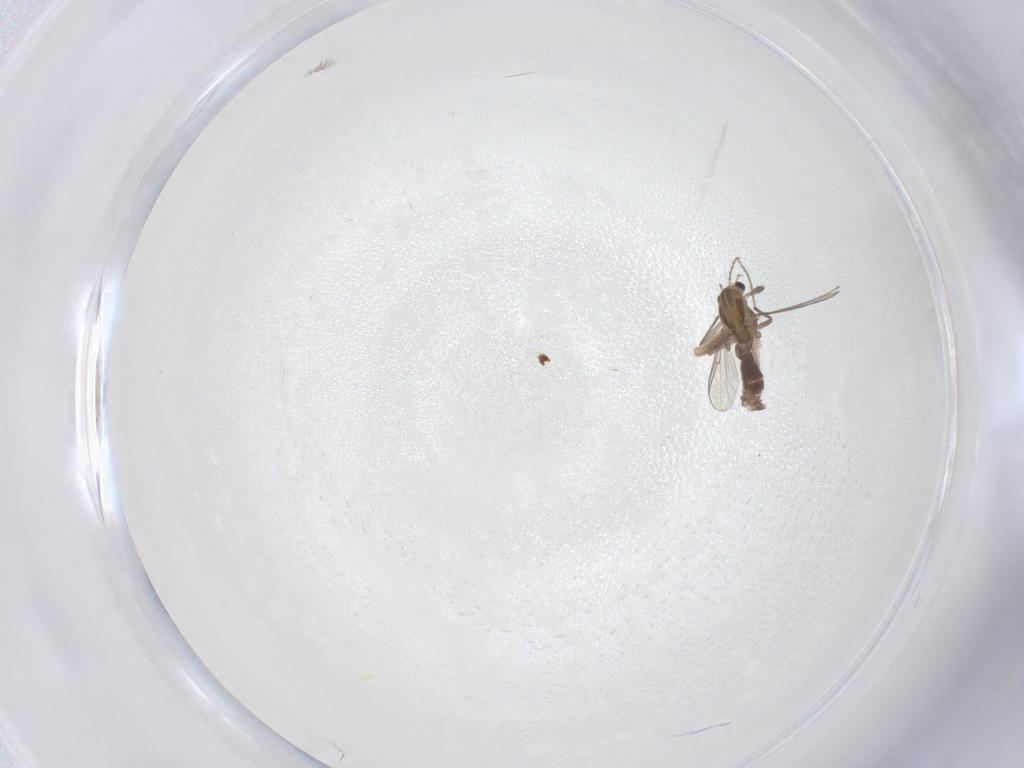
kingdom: Animalia
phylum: Arthropoda
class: Insecta
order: Diptera
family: Chironomidae
